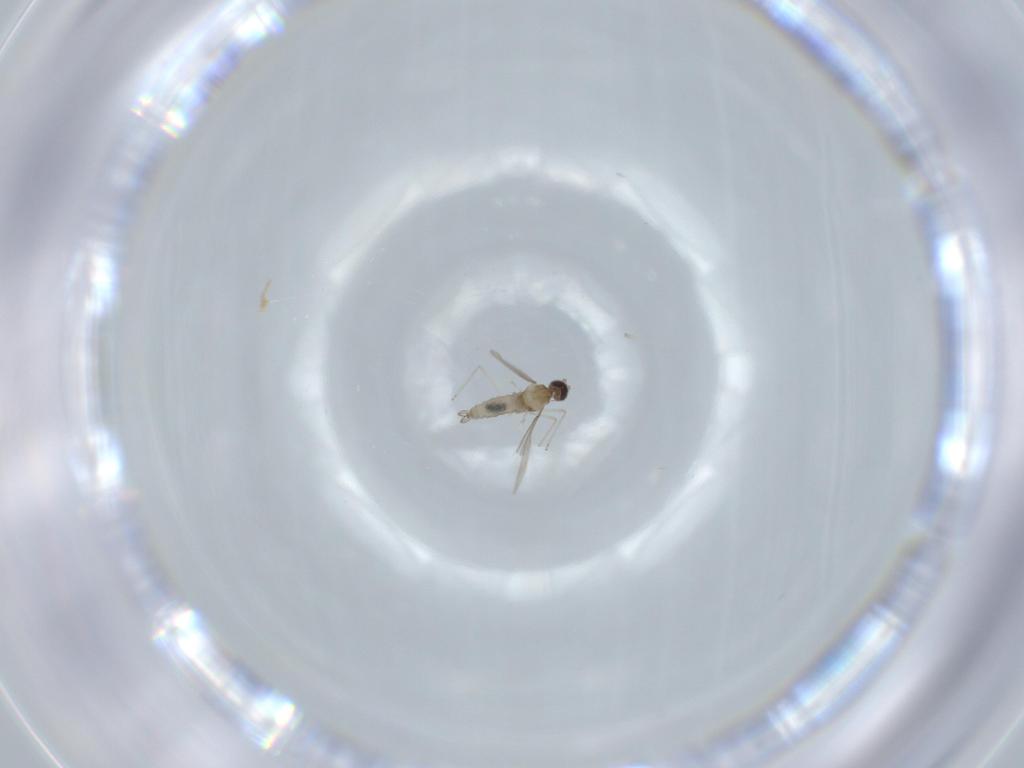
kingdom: Animalia
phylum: Arthropoda
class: Insecta
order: Diptera
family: Cecidomyiidae
